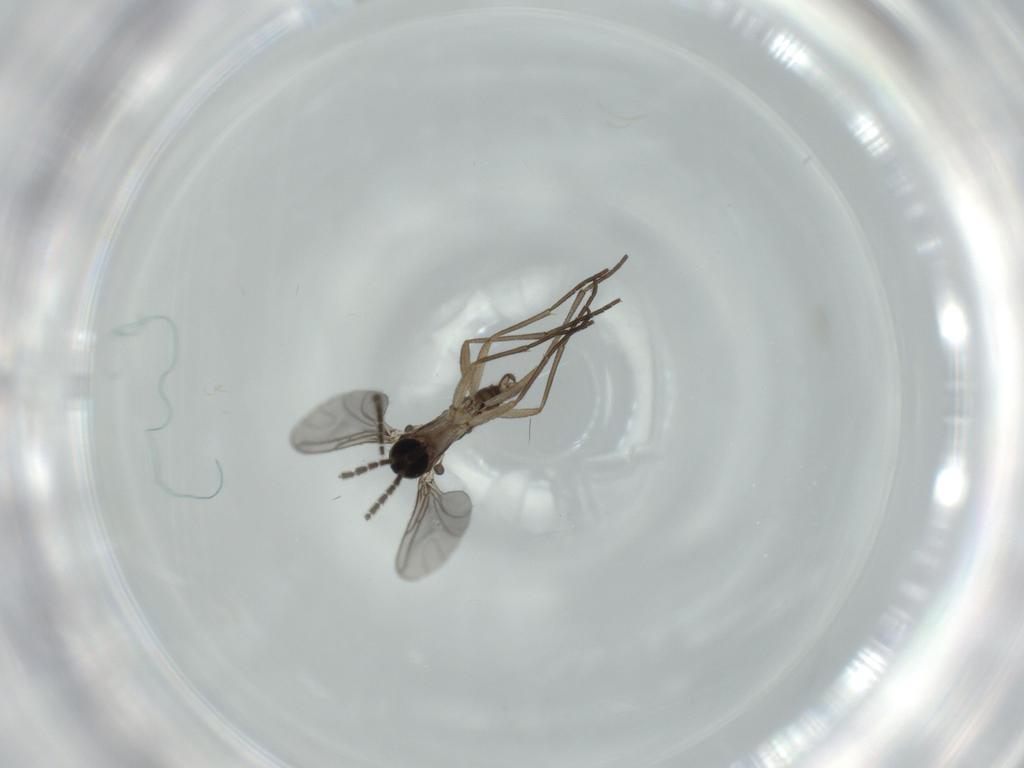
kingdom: Animalia
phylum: Arthropoda
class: Insecta
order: Diptera
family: Sciaridae
